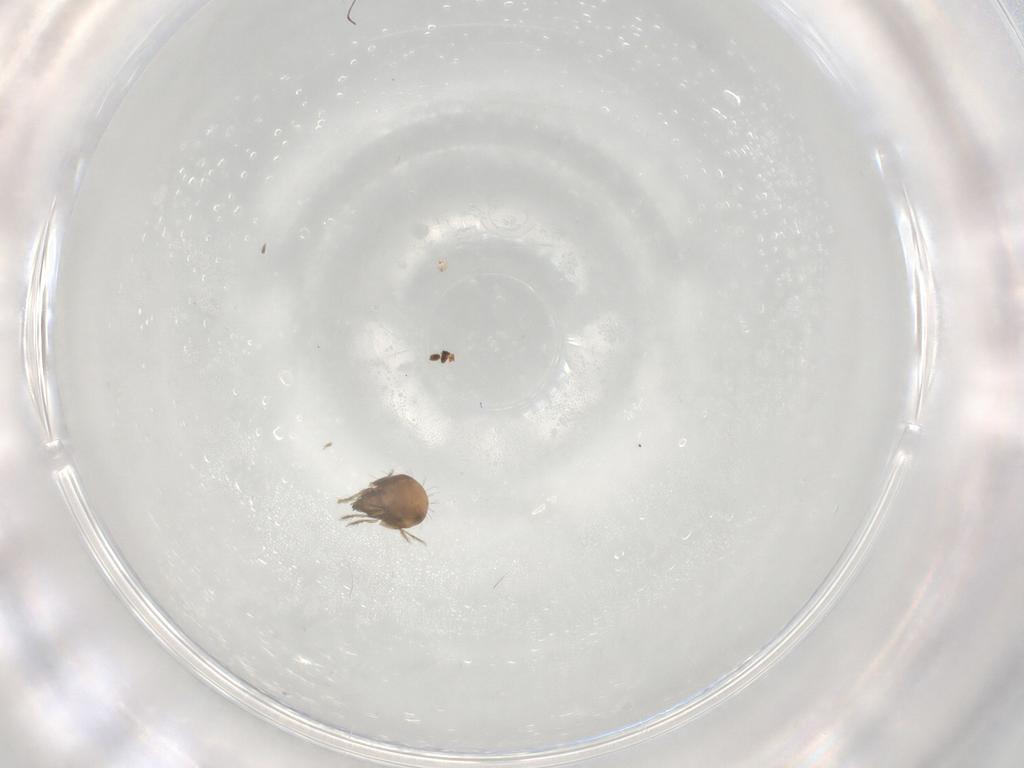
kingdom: Animalia
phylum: Arthropoda
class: Arachnida
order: Sarcoptiformes
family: Humerobatidae
